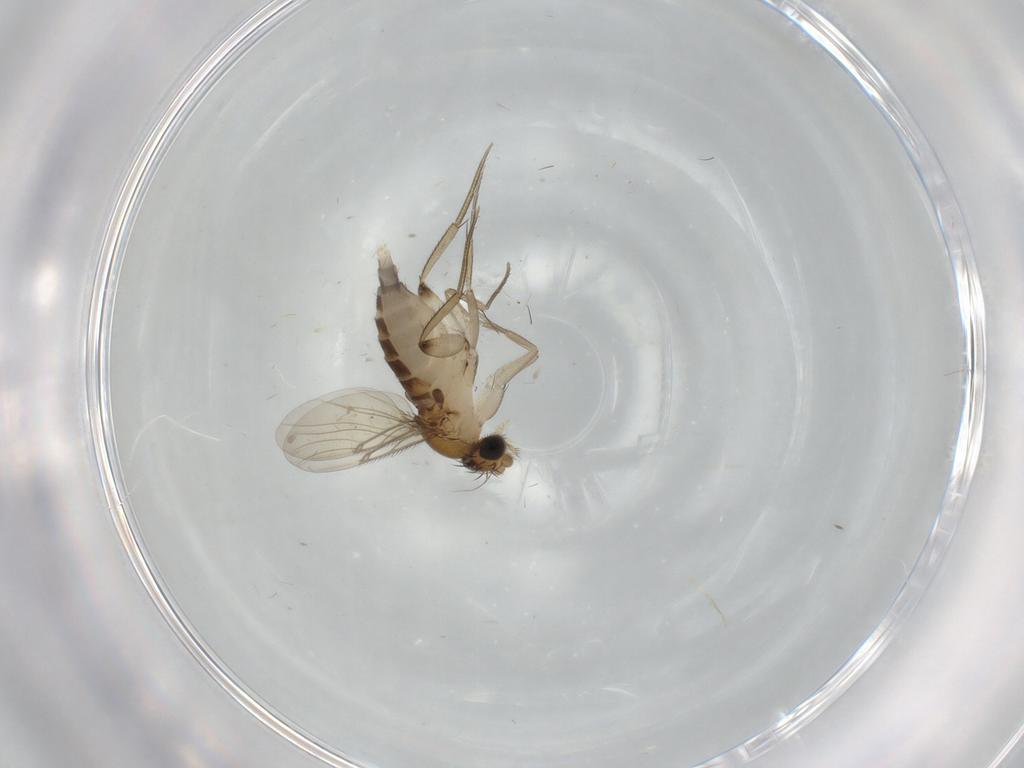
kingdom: Animalia
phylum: Arthropoda
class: Insecta
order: Diptera
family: Phoridae
